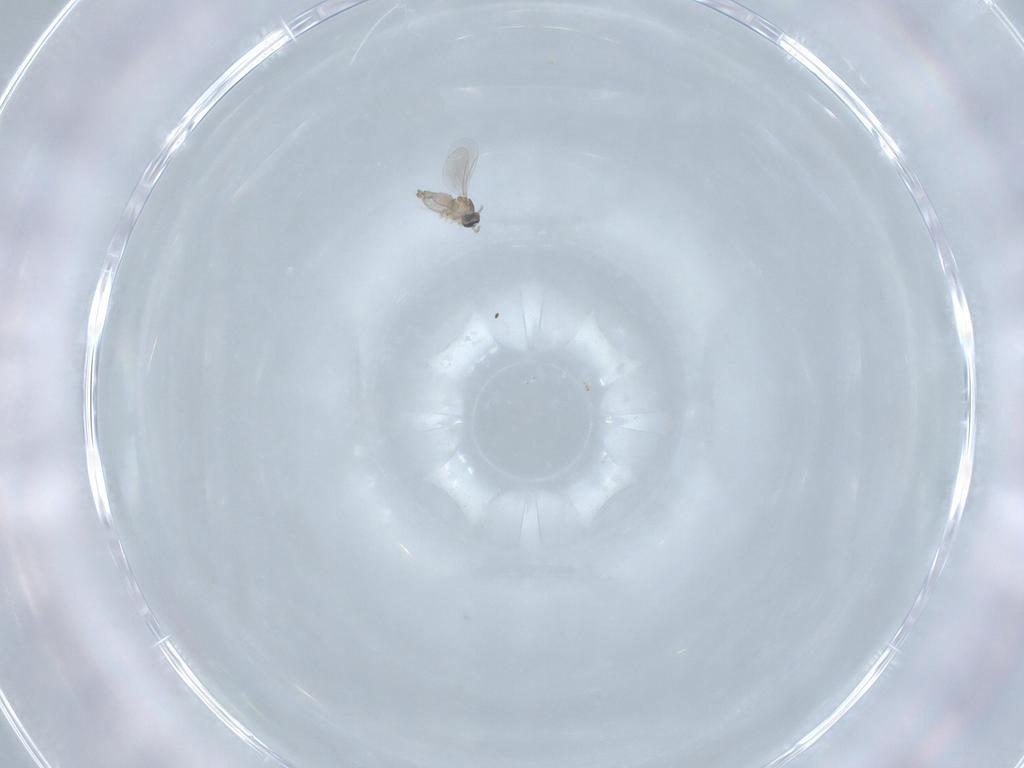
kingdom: Animalia
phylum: Arthropoda
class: Insecta
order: Diptera
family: Cecidomyiidae
